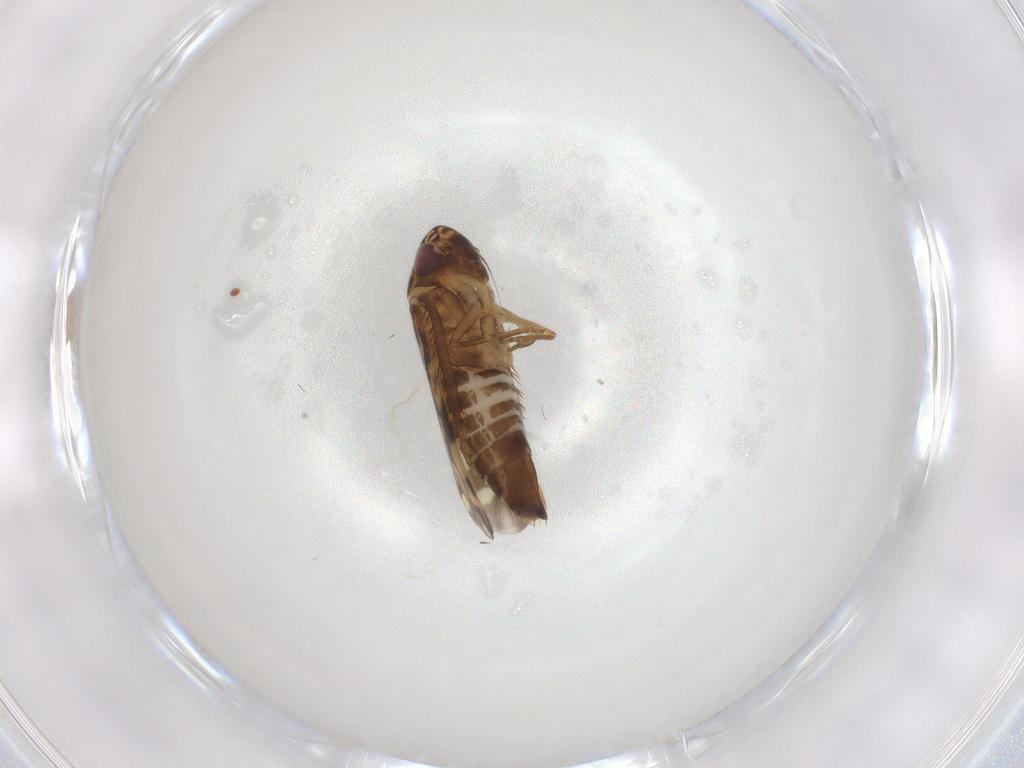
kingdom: Animalia
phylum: Arthropoda
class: Insecta
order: Hemiptera
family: Cicadellidae
